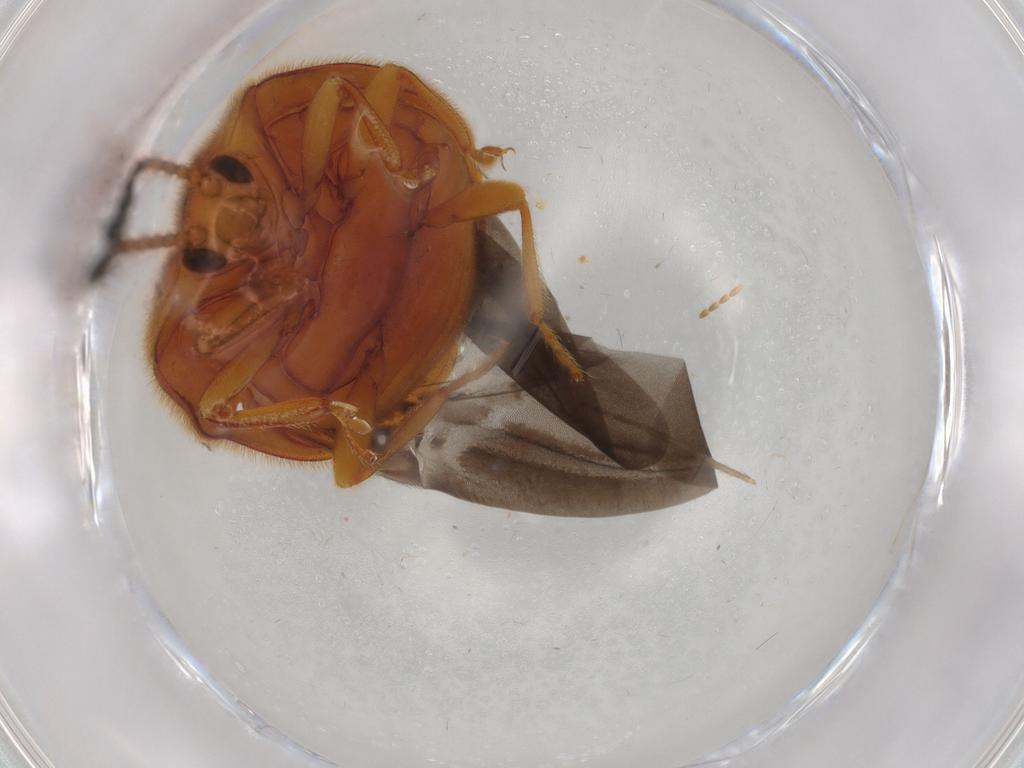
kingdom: Animalia
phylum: Arthropoda
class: Insecta
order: Coleoptera
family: Endomychidae
